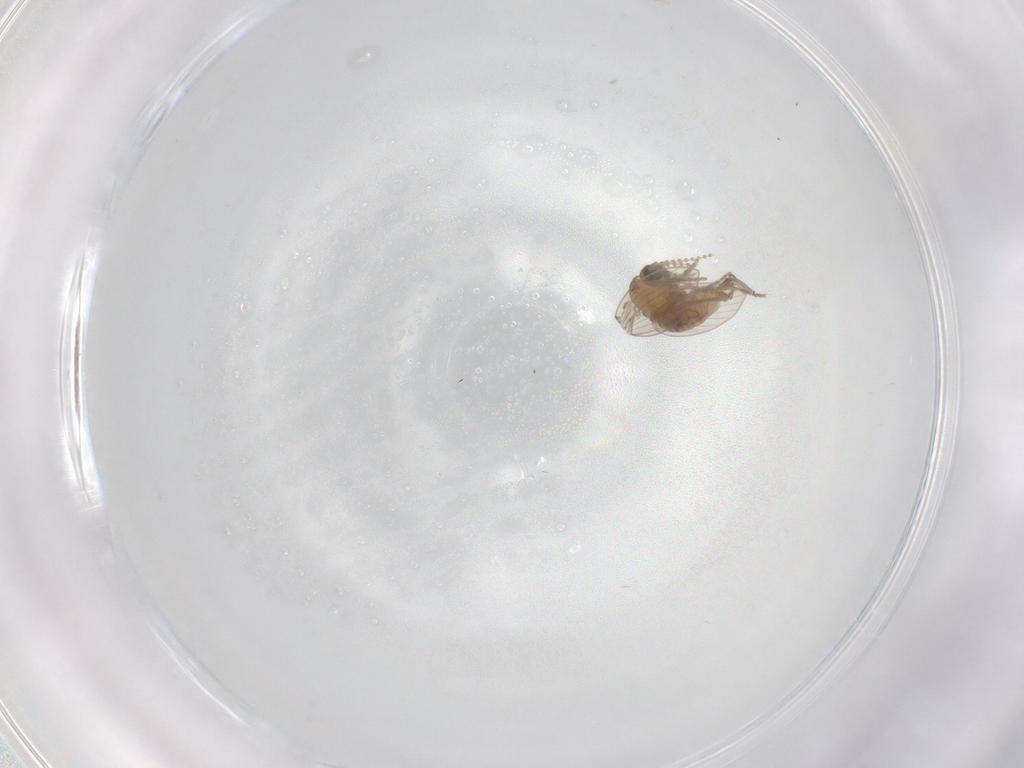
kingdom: Animalia
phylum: Arthropoda
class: Insecta
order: Diptera
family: Psychodidae
